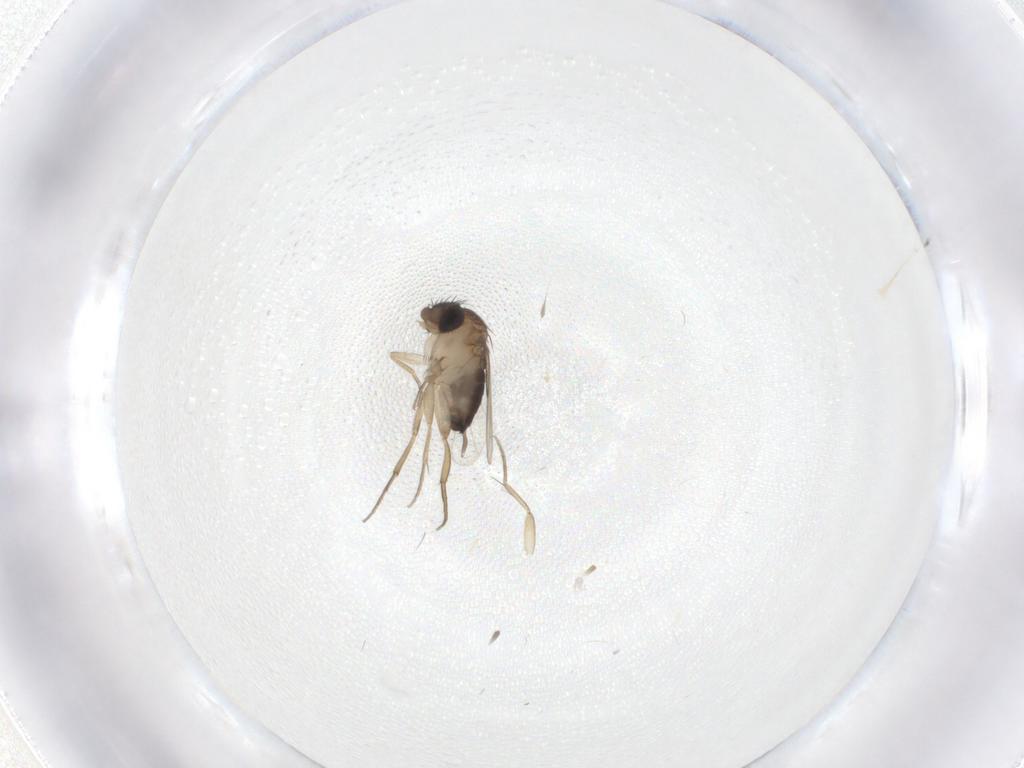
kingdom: Animalia
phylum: Arthropoda
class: Insecta
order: Diptera
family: Phoridae
